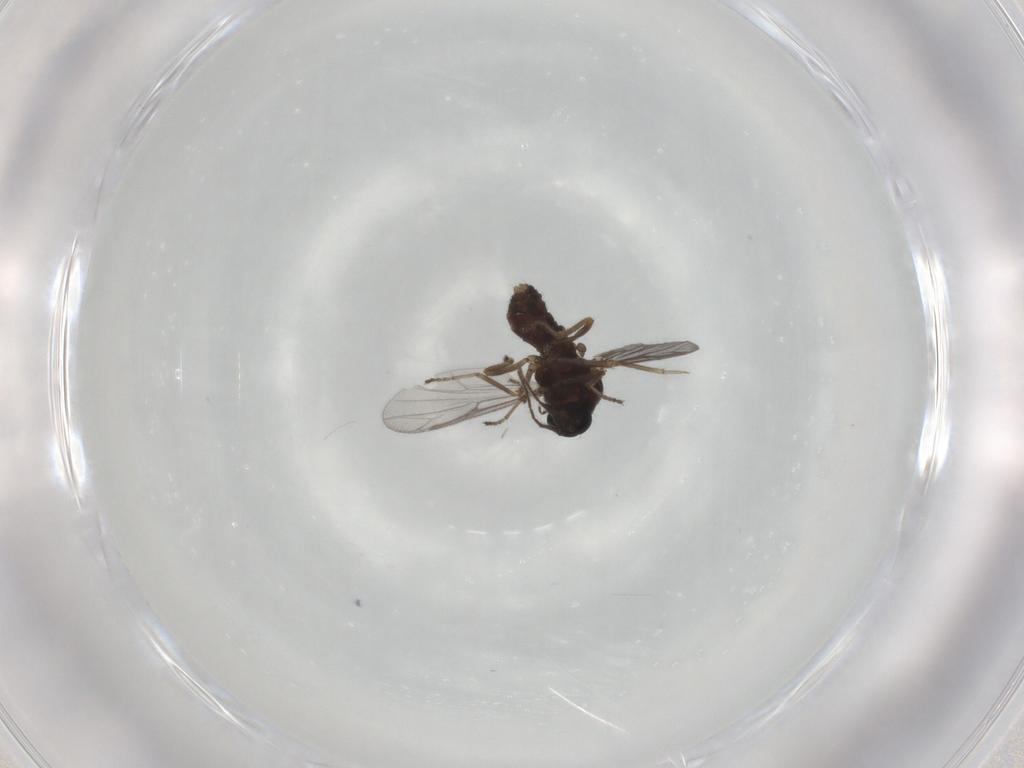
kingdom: Animalia
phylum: Arthropoda
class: Insecta
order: Diptera
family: Ceratopogonidae
